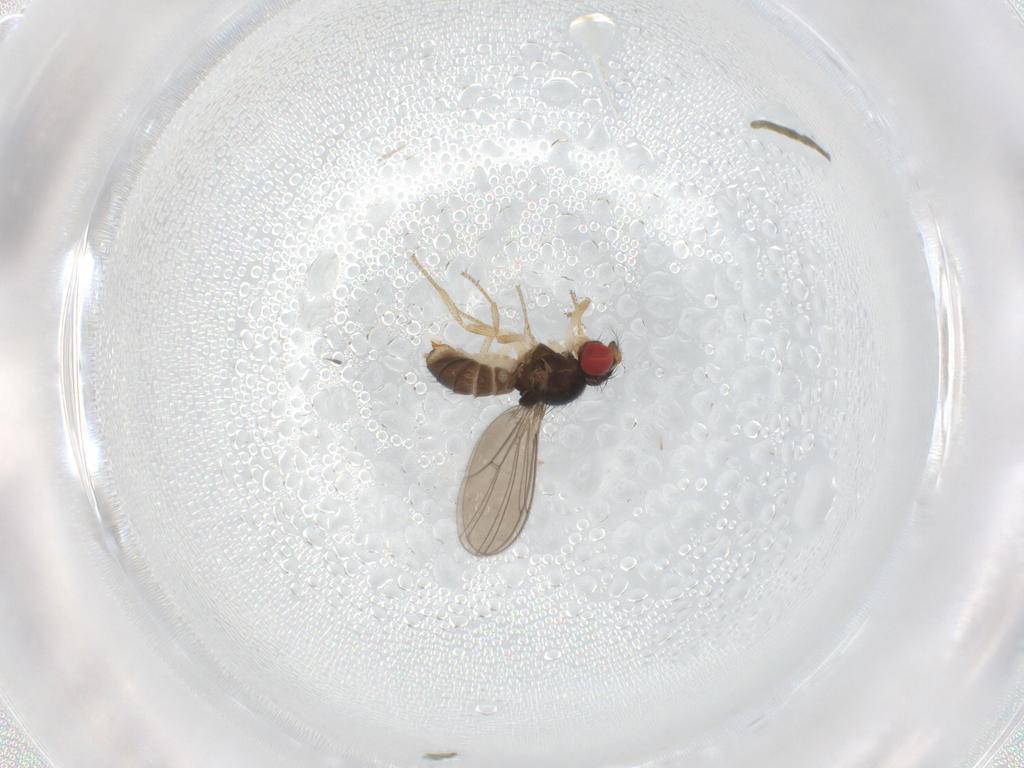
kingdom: Animalia
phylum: Arthropoda
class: Insecta
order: Diptera
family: Drosophilidae
